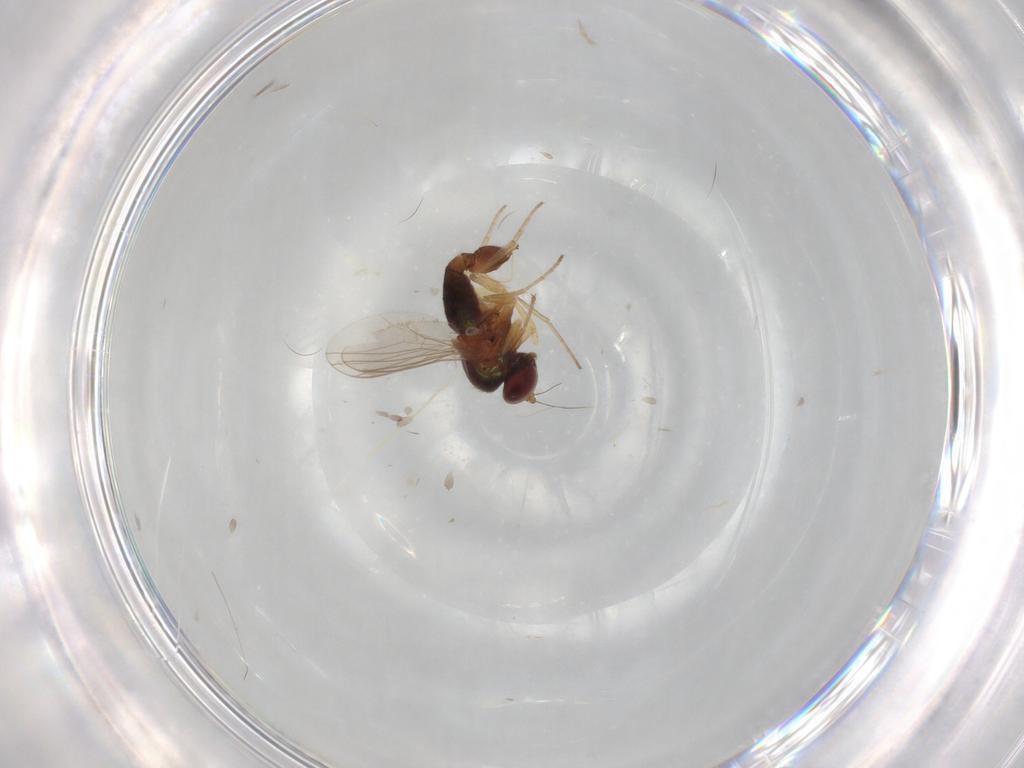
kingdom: Animalia
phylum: Arthropoda
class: Insecta
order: Diptera
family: Dolichopodidae
